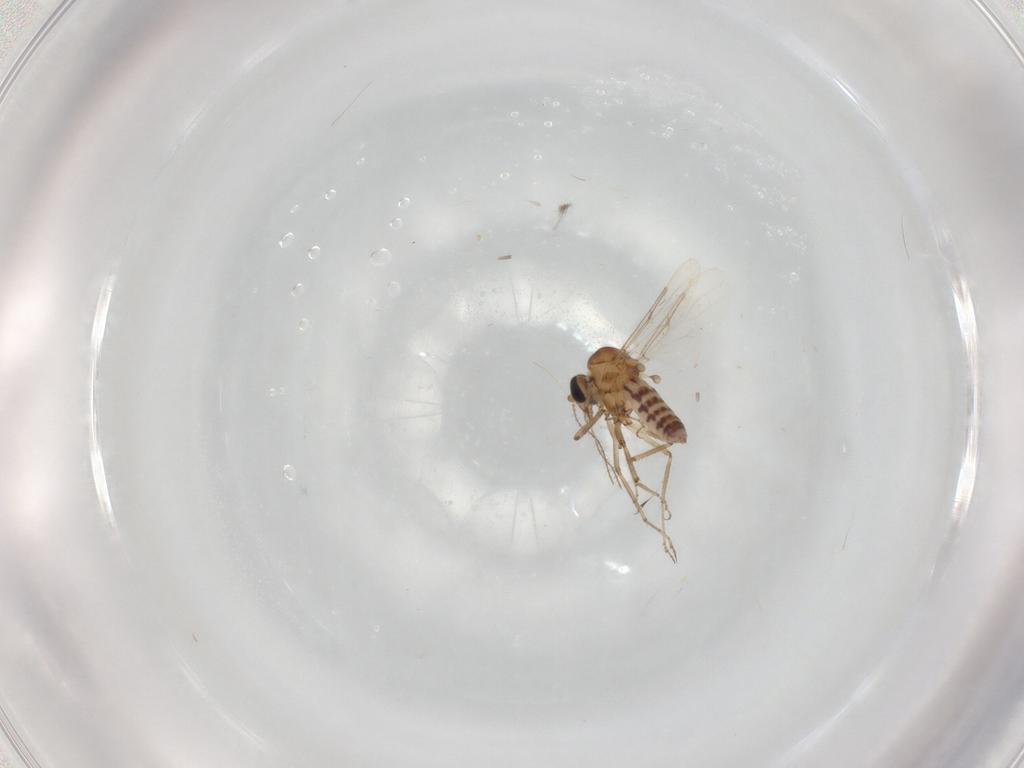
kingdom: Animalia
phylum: Arthropoda
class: Insecta
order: Diptera
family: Ceratopogonidae
